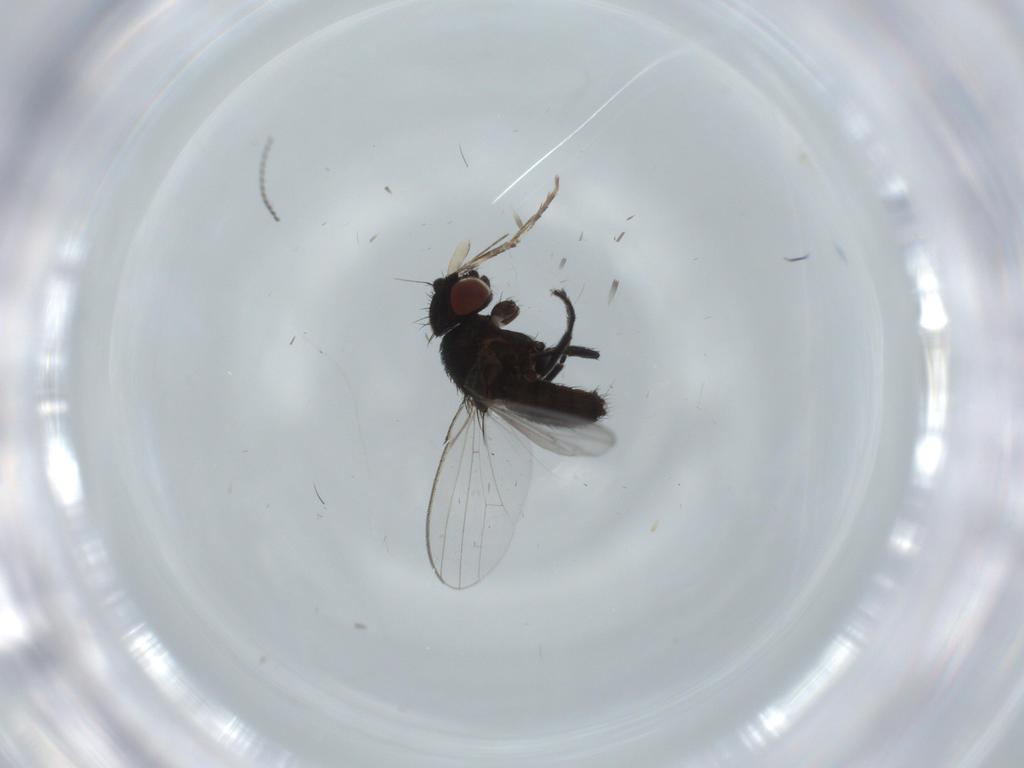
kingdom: Animalia
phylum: Arthropoda
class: Insecta
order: Diptera
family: Milichiidae
